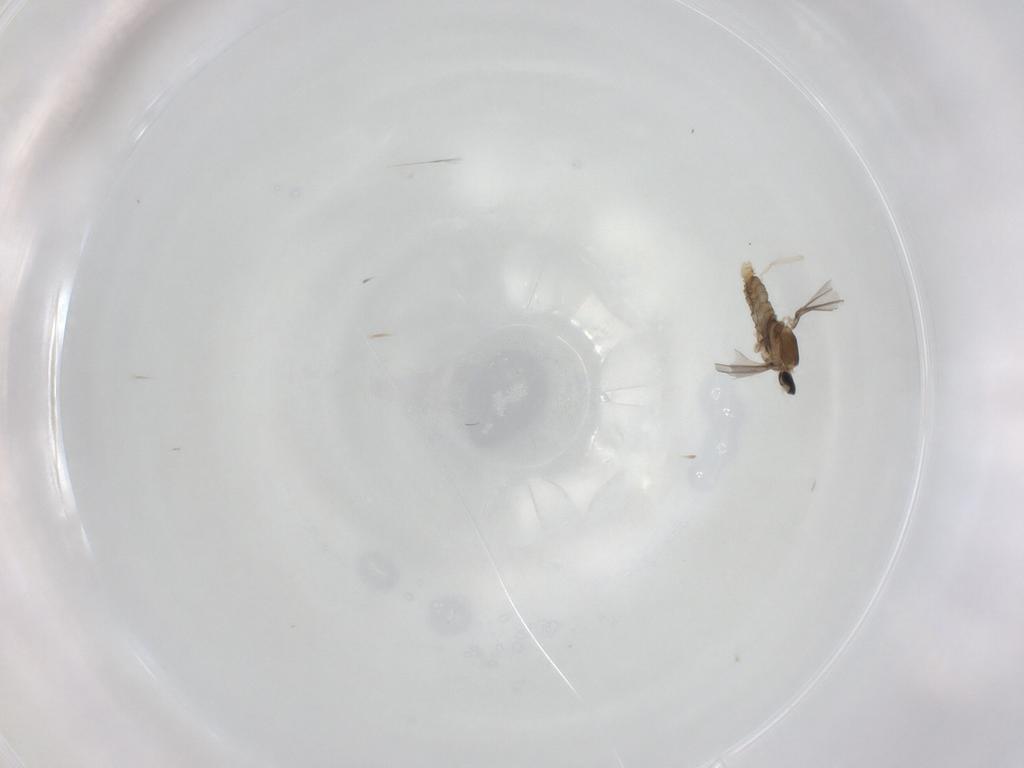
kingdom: Animalia
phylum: Arthropoda
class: Insecta
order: Diptera
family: Cecidomyiidae
